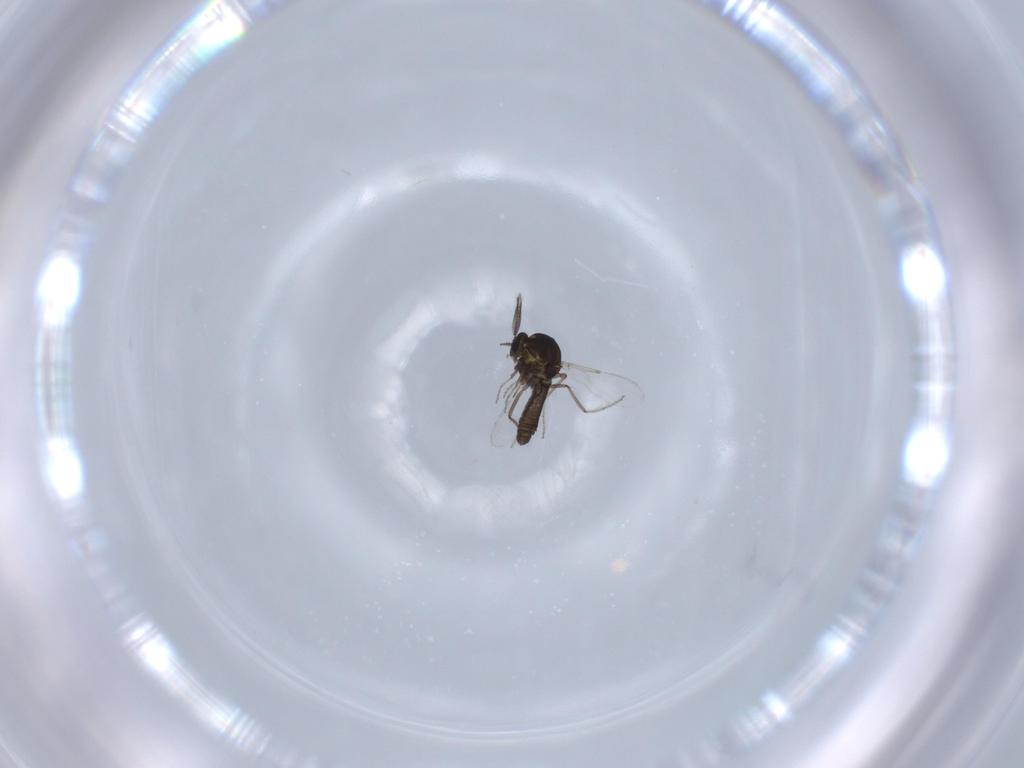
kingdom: Animalia
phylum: Arthropoda
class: Insecta
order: Diptera
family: Ceratopogonidae
